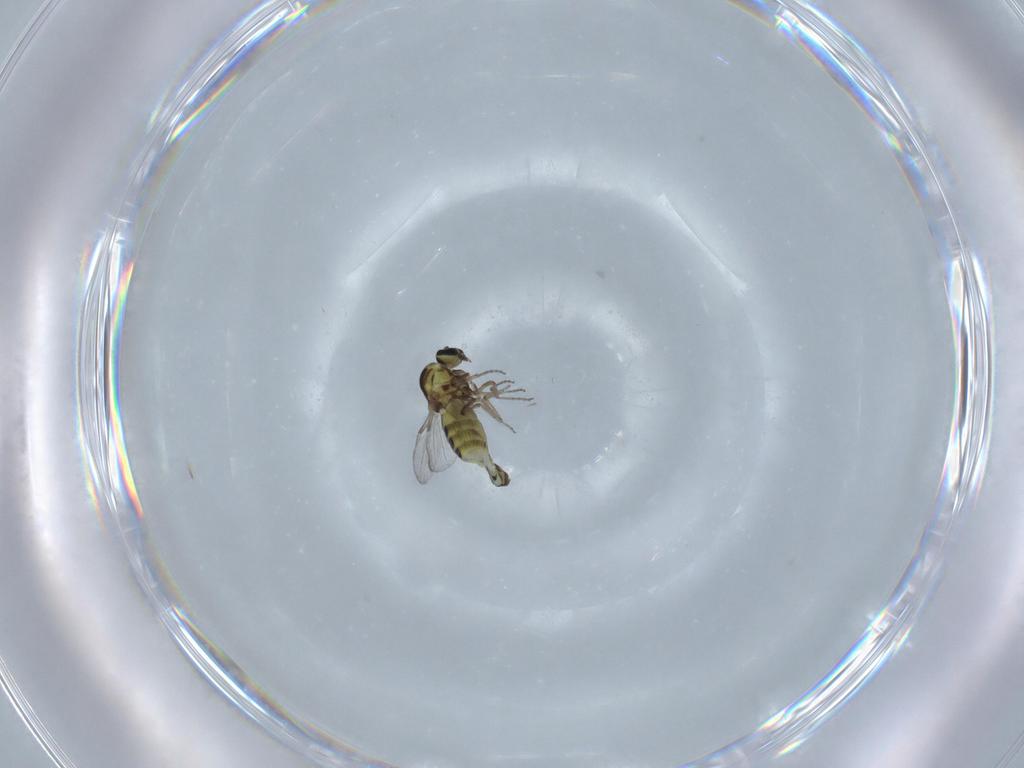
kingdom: Animalia
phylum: Arthropoda
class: Insecta
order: Diptera
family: Ceratopogonidae
